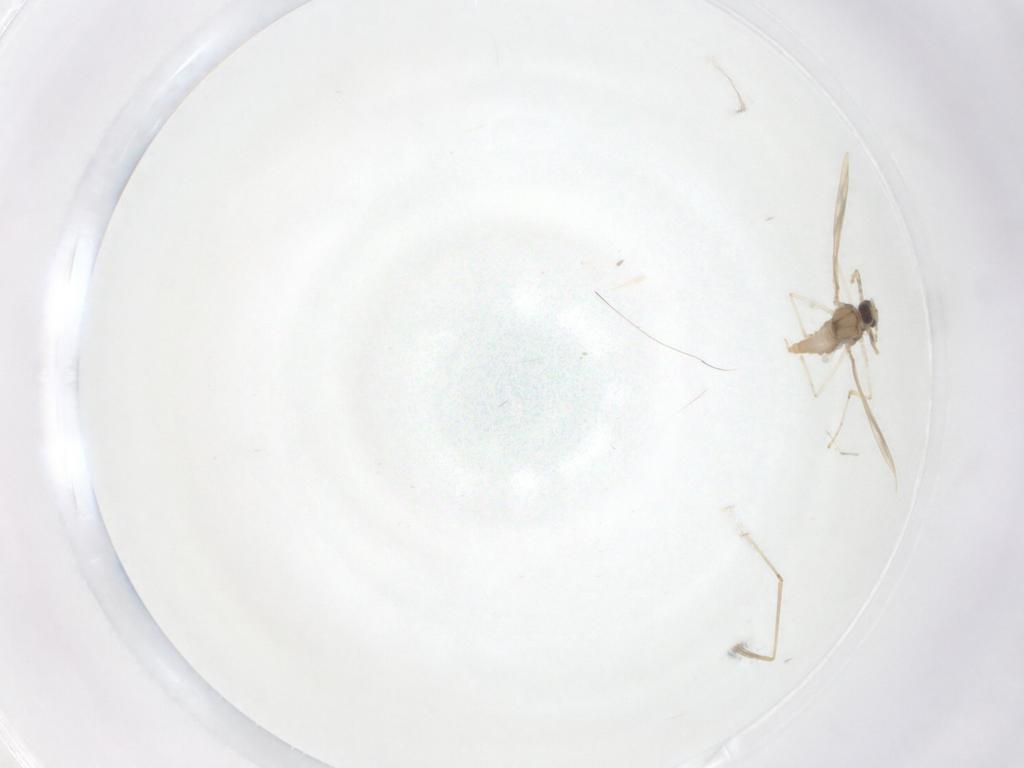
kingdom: Animalia
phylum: Arthropoda
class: Insecta
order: Diptera
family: Cecidomyiidae
